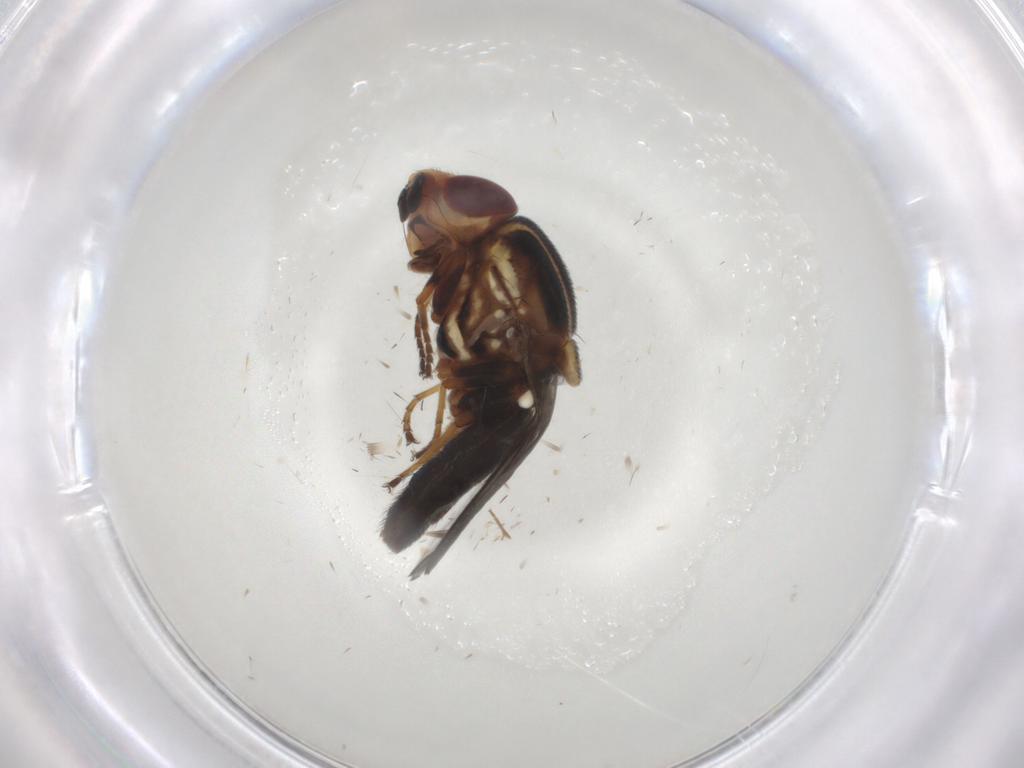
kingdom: Animalia
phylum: Arthropoda
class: Insecta
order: Diptera
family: Chloropidae
